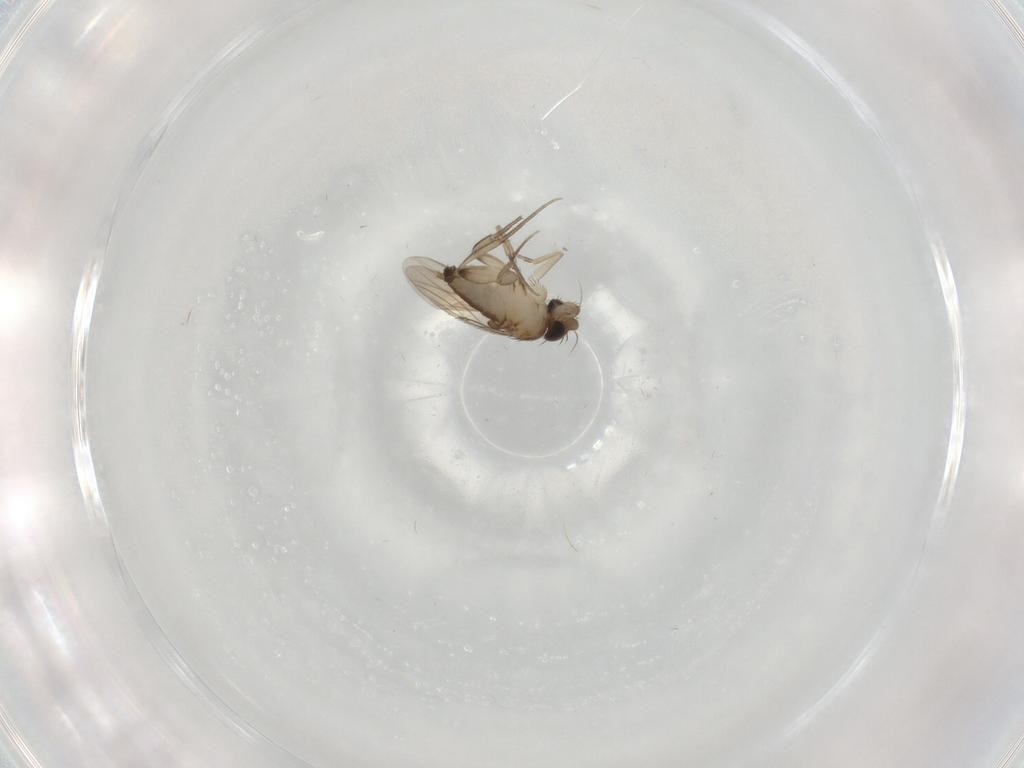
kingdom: Animalia
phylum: Arthropoda
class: Insecta
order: Diptera
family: Phoridae
